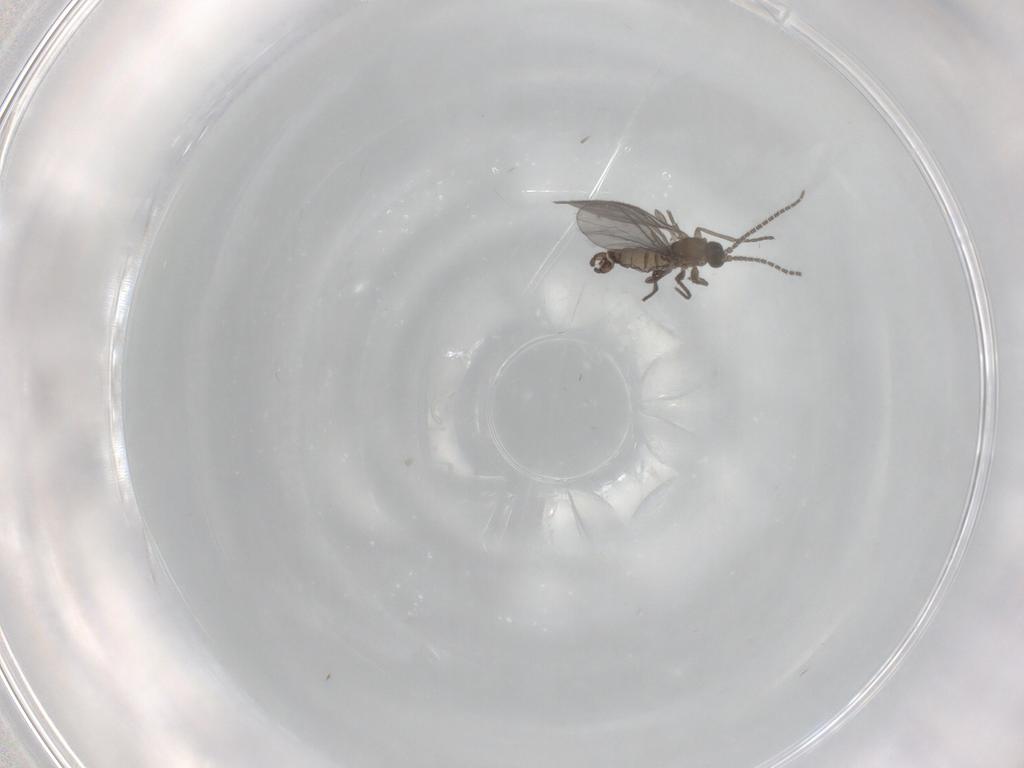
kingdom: Animalia
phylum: Arthropoda
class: Insecta
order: Diptera
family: Sciaridae
